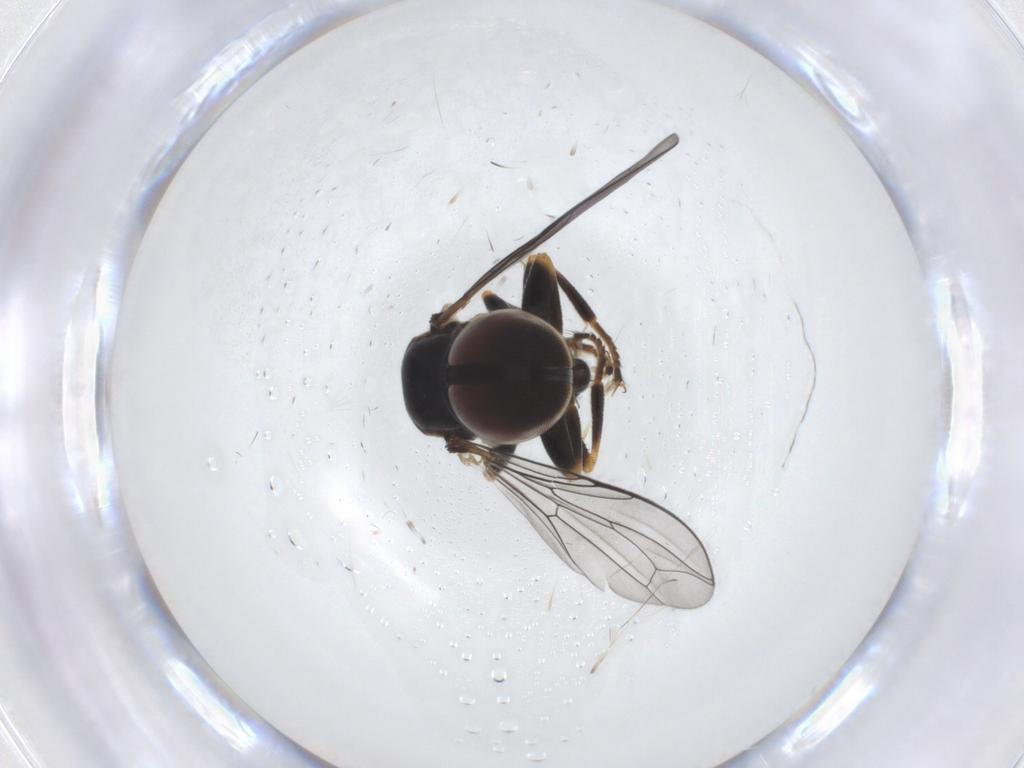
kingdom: Animalia
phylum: Arthropoda
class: Insecta
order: Diptera
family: Pipunculidae
